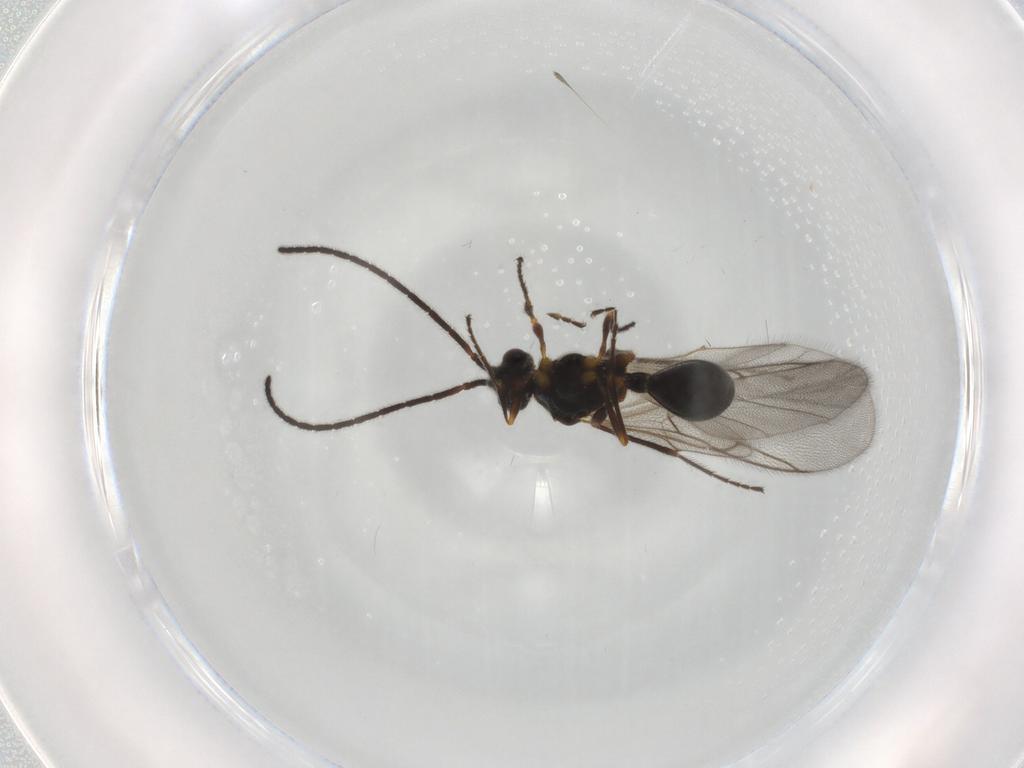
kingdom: Animalia
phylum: Arthropoda
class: Insecta
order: Hymenoptera
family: Diapriidae
